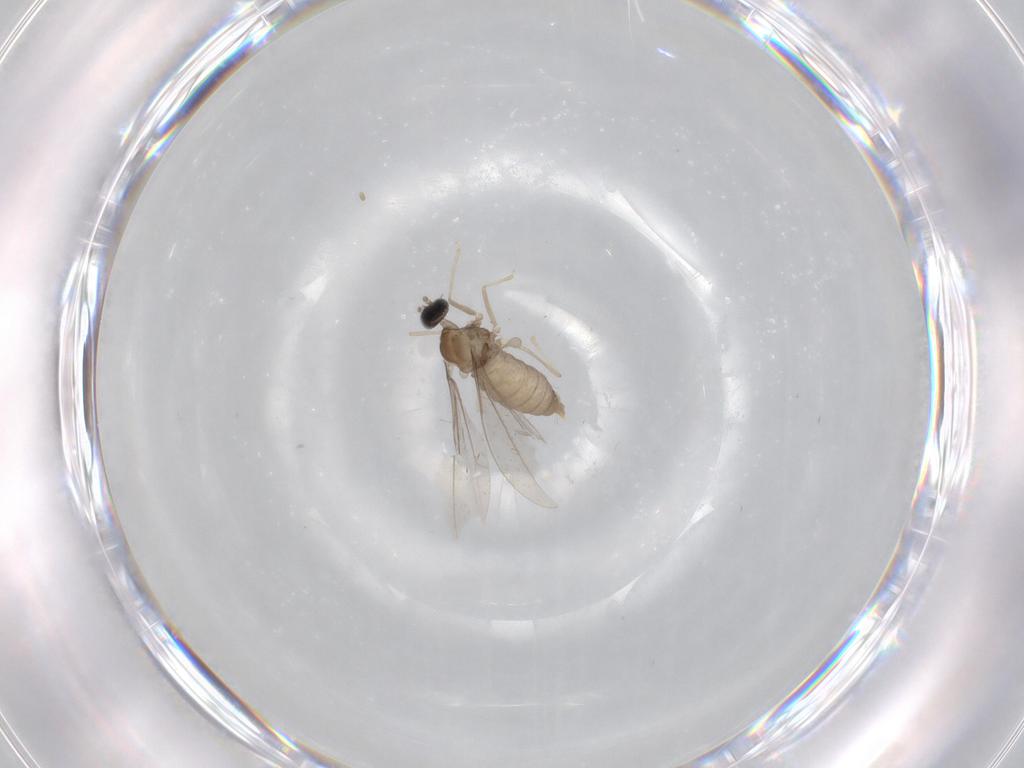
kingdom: Animalia
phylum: Arthropoda
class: Insecta
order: Diptera
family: Cecidomyiidae
